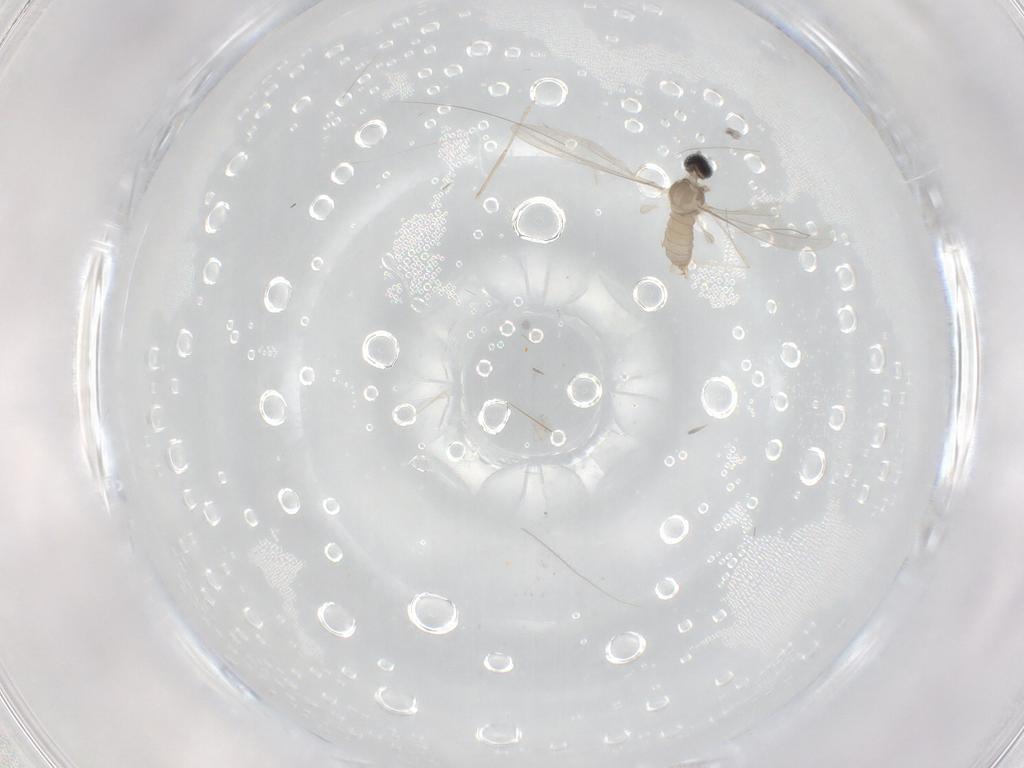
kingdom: Animalia
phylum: Arthropoda
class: Insecta
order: Diptera
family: Cecidomyiidae
